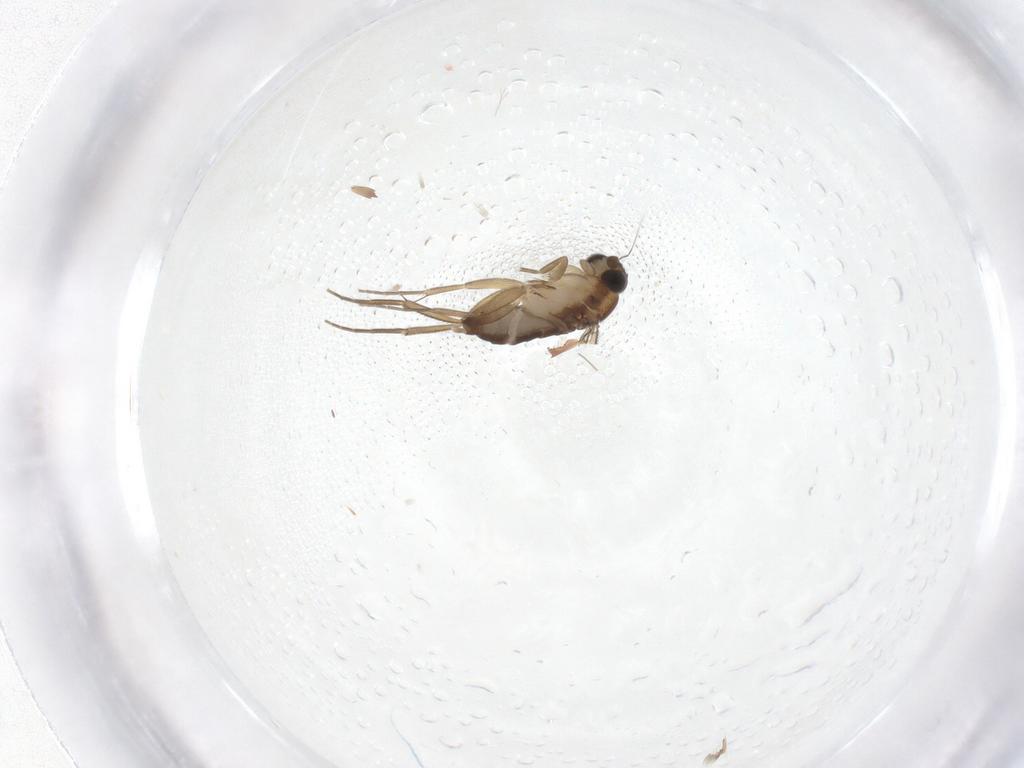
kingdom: Animalia
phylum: Arthropoda
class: Insecta
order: Diptera
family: Phoridae
